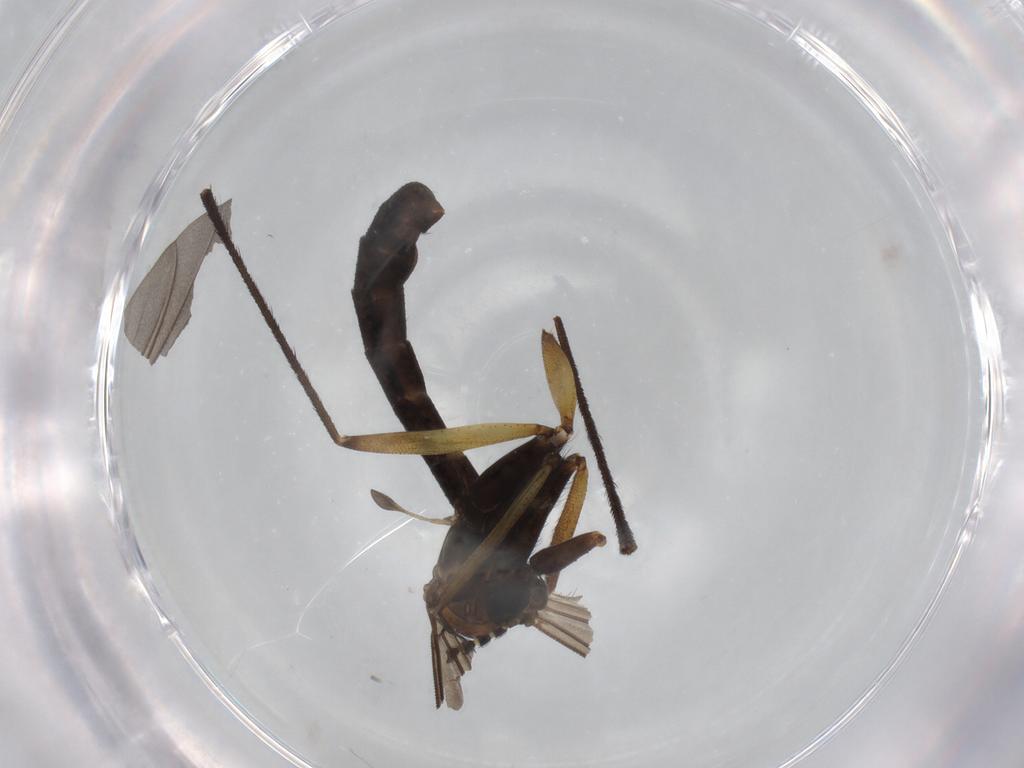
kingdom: Animalia
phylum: Arthropoda
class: Insecta
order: Diptera
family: Sciaridae
